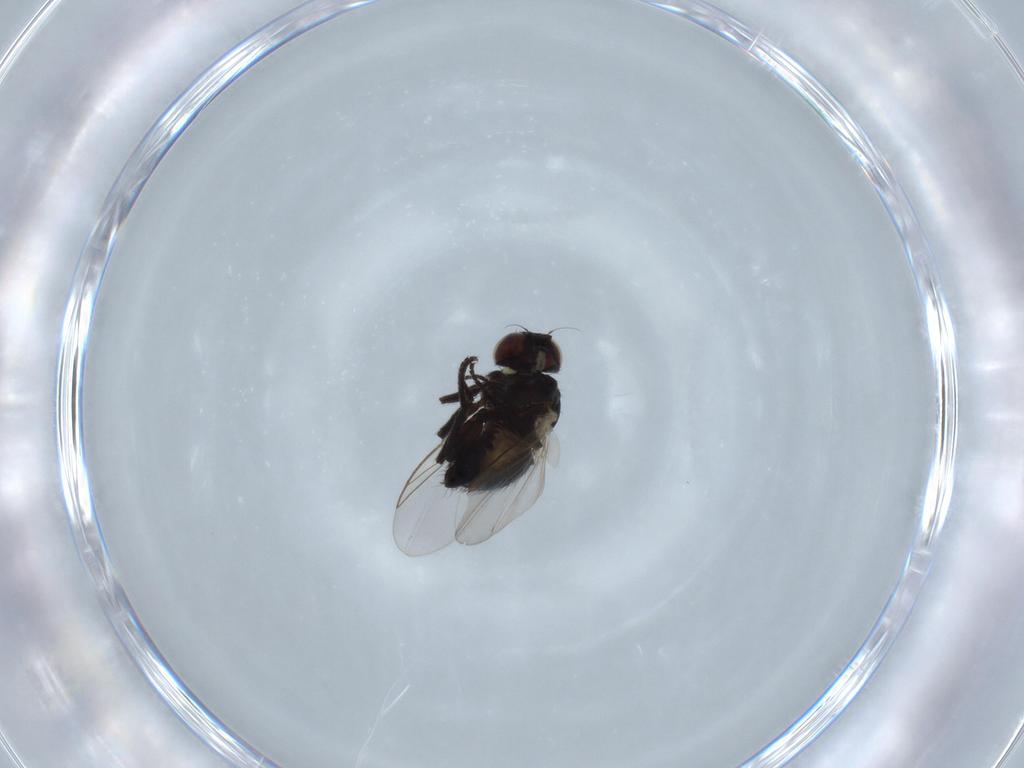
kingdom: Animalia
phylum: Arthropoda
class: Insecta
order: Diptera
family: Agromyzidae
